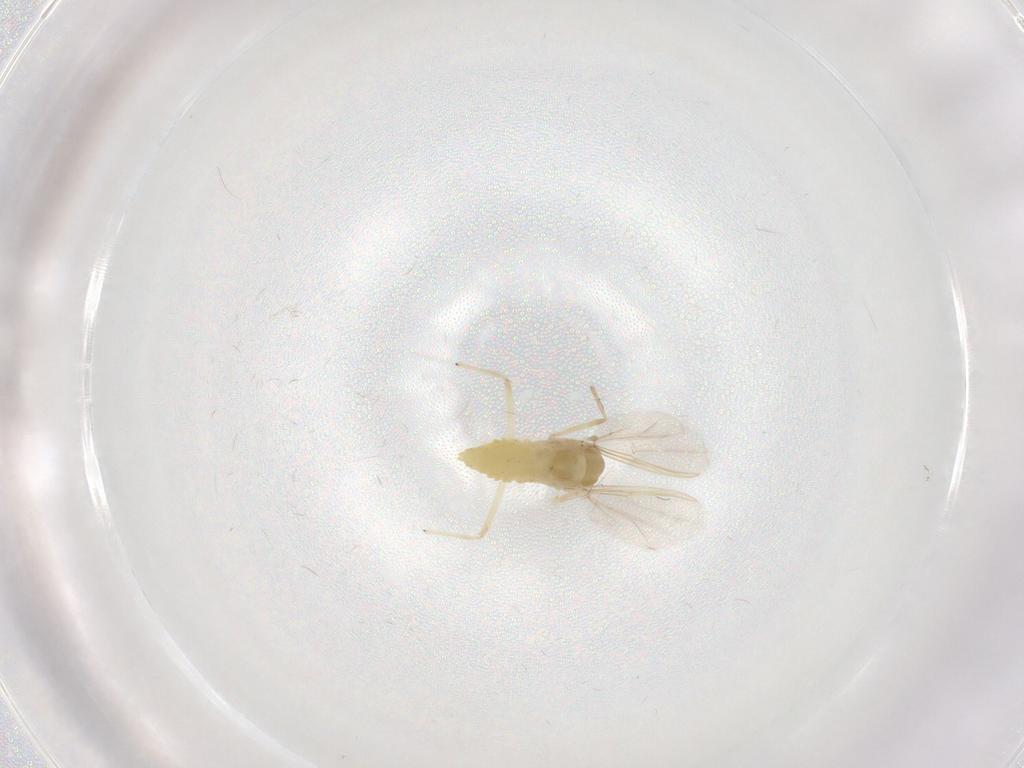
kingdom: Animalia
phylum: Arthropoda
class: Insecta
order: Diptera
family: Chironomidae
